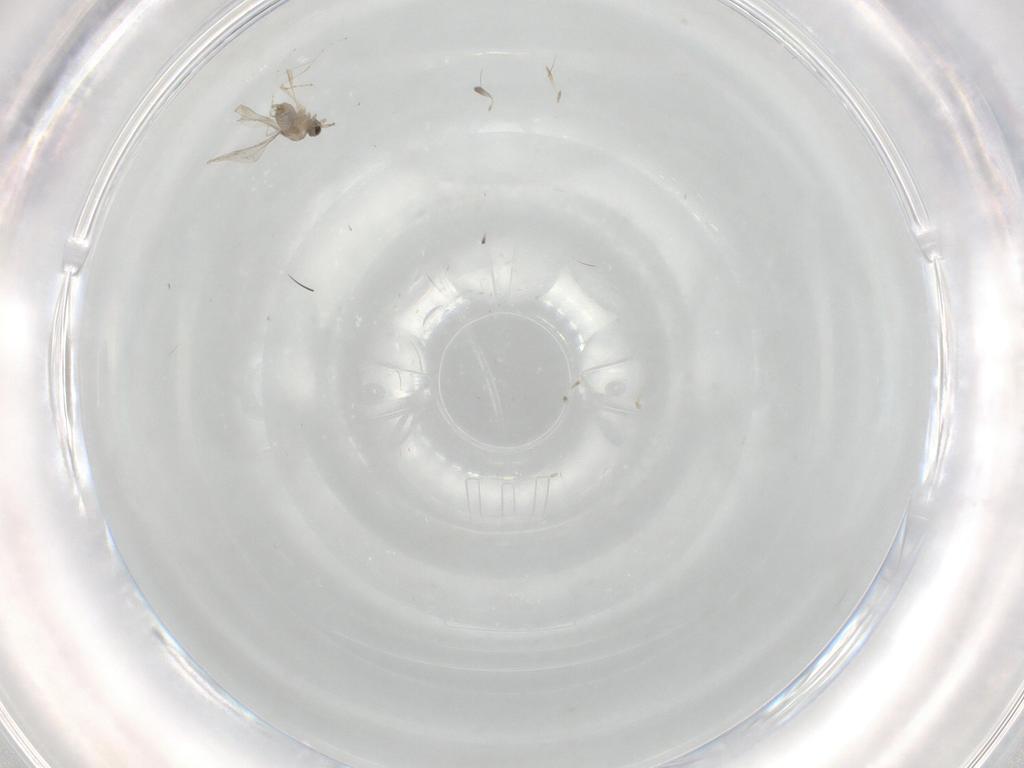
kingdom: Animalia
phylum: Arthropoda
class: Insecta
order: Diptera
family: Cecidomyiidae
